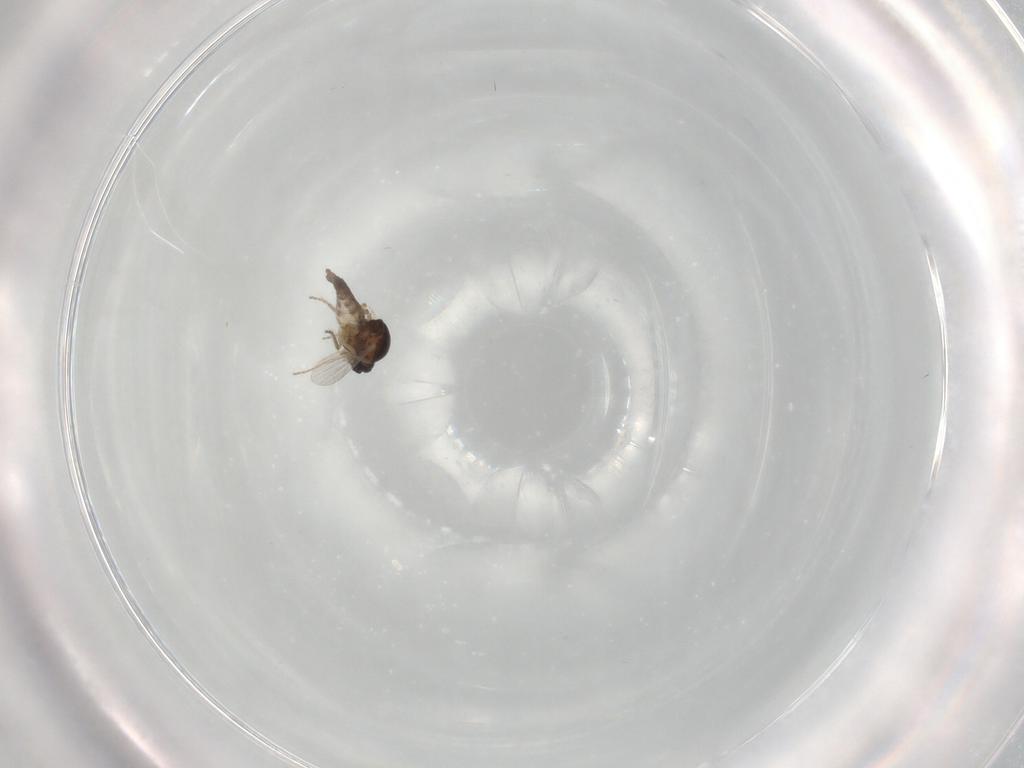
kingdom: Animalia
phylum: Arthropoda
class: Insecta
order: Diptera
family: Ceratopogonidae
